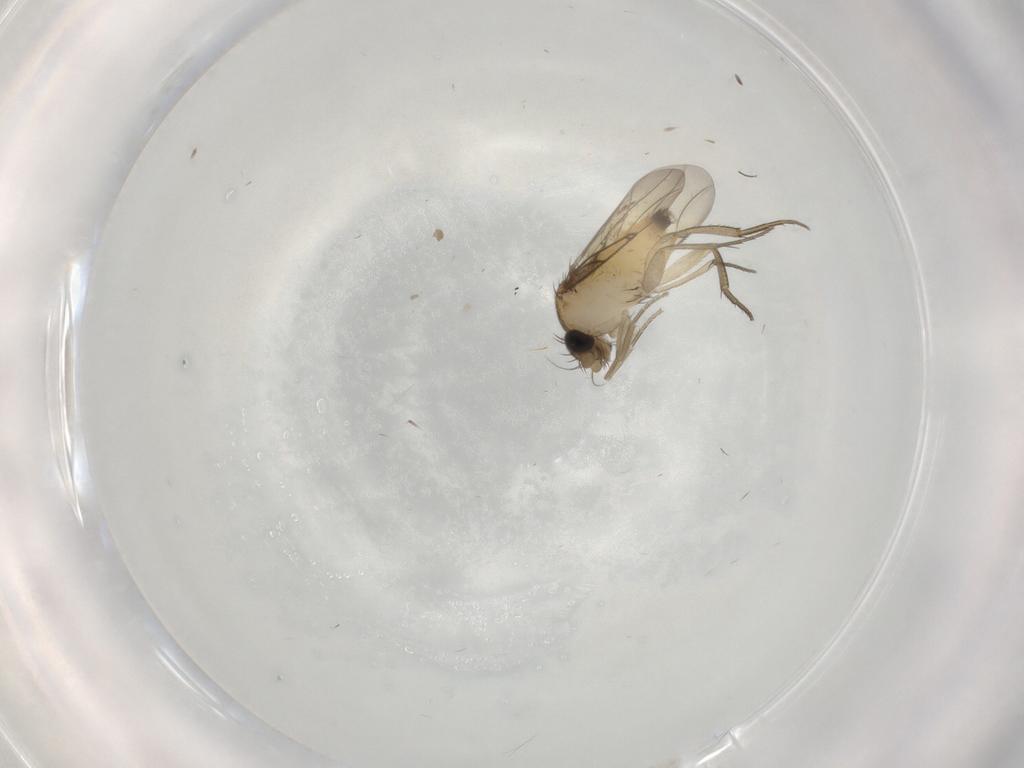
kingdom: Animalia
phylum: Arthropoda
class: Insecta
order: Diptera
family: Phoridae
